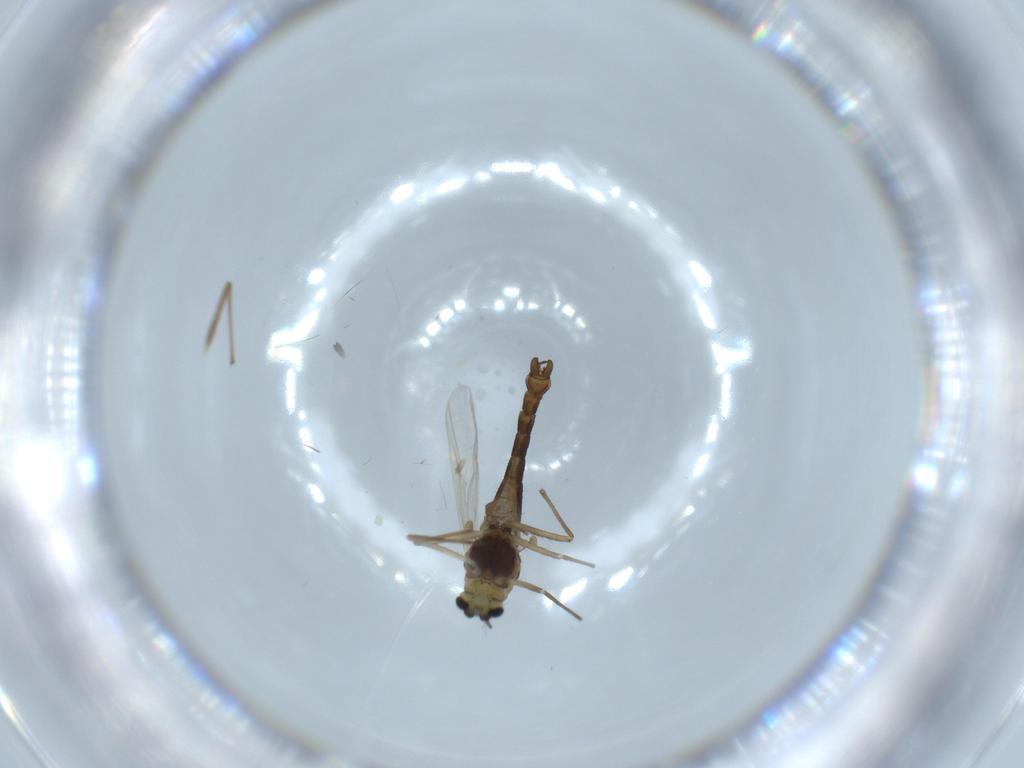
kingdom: Animalia
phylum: Arthropoda
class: Insecta
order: Diptera
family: Chironomidae
